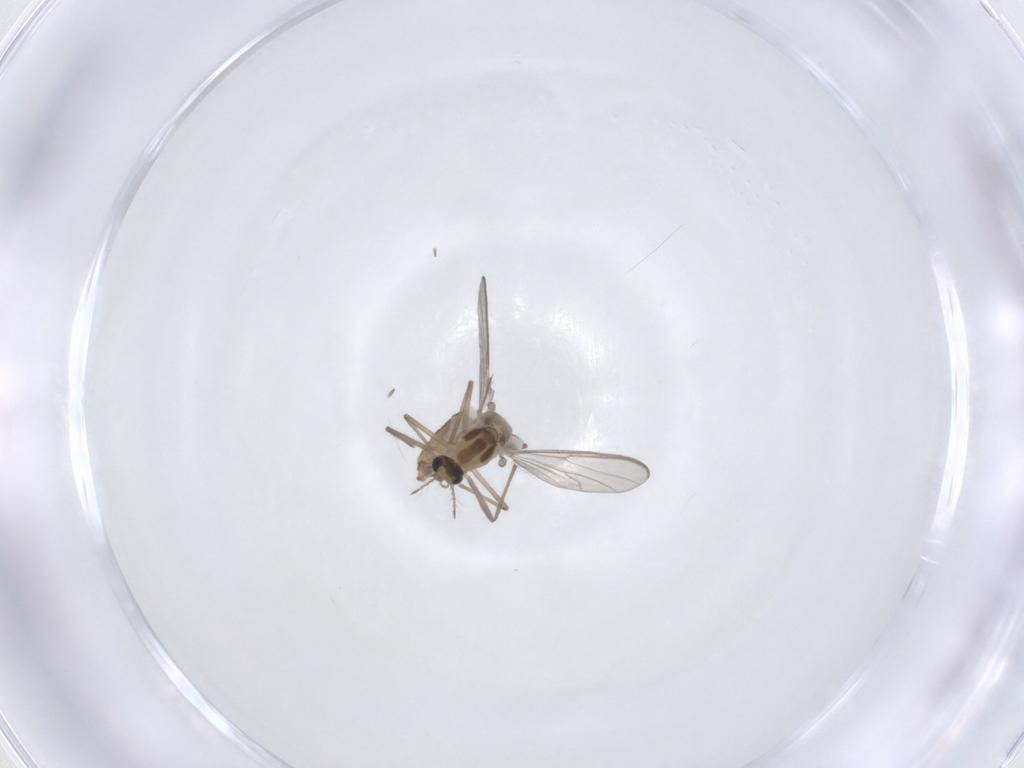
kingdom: Animalia
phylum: Arthropoda
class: Insecta
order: Diptera
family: Chironomidae
